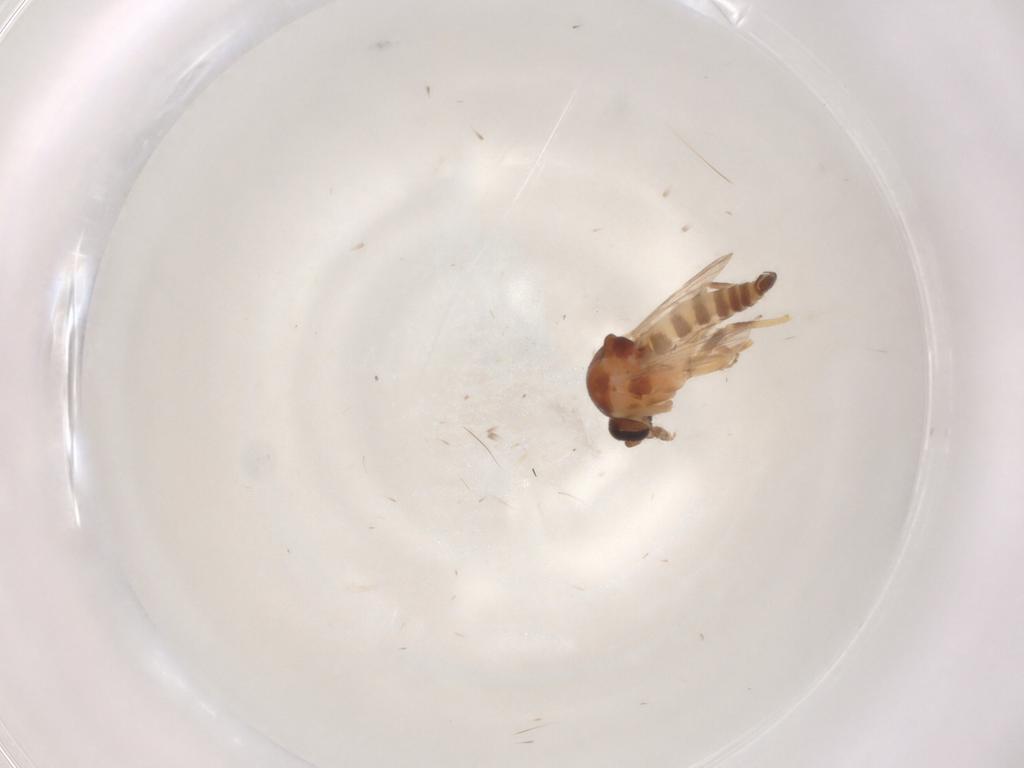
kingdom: Animalia
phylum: Arthropoda
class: Insecta
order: Diptera
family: Ceratopogonidae
